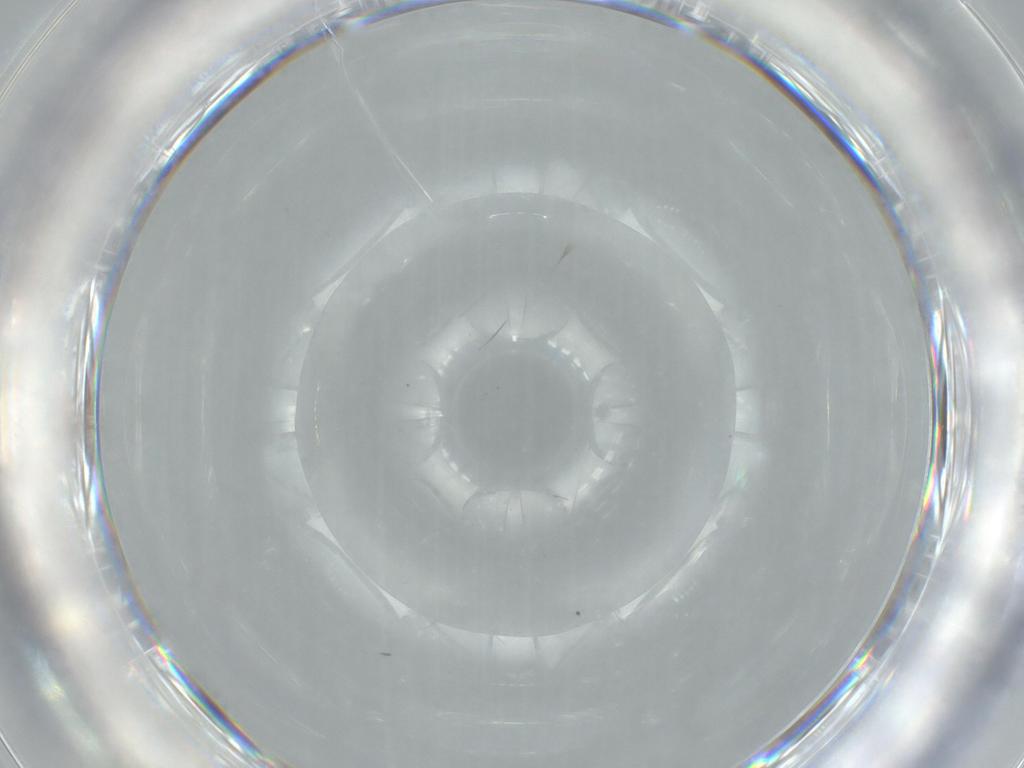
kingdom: Animalia
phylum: Arthropoda
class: Insecta
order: Diptera
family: Cecidomyiidae
